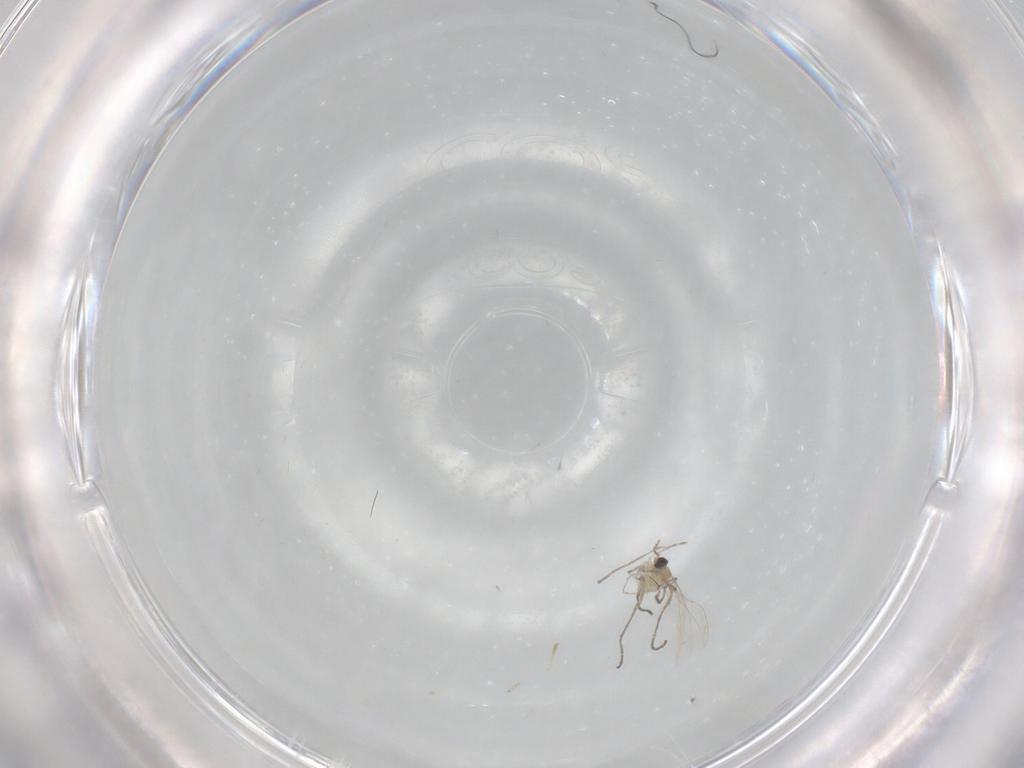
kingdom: Animalia
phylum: Arthropoda
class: Insecta
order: Diptera
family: Cecidomyiidae
